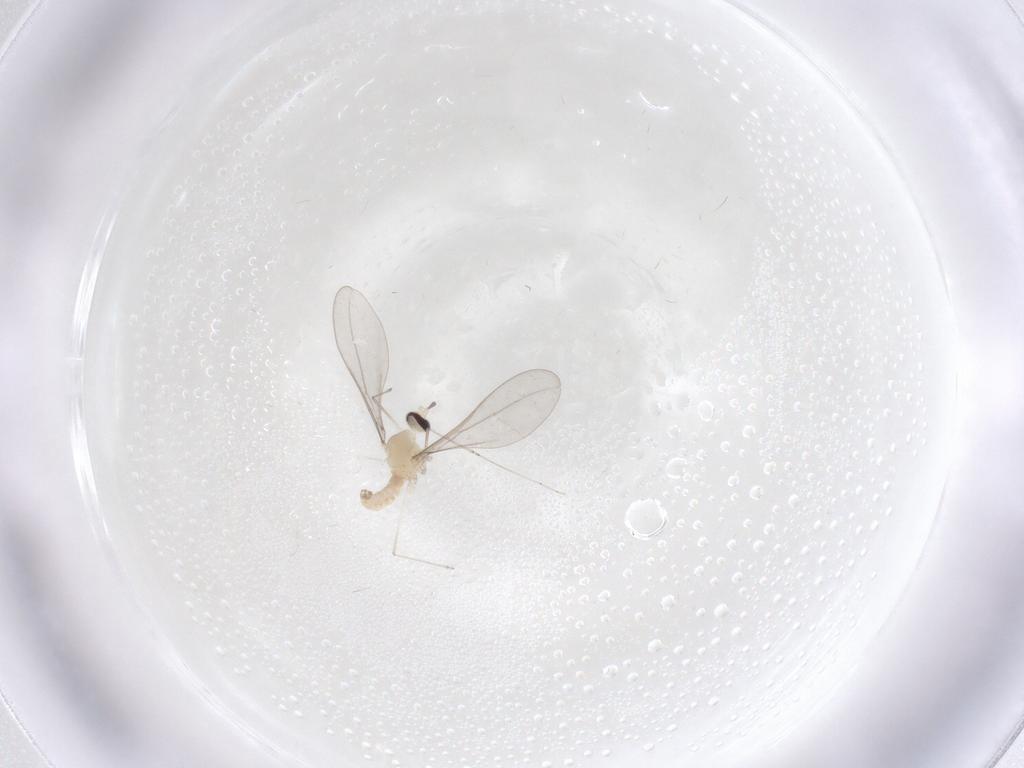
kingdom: Animalia
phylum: Arthropoda
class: Insecta
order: Diptera
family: Cecidomyiidae
